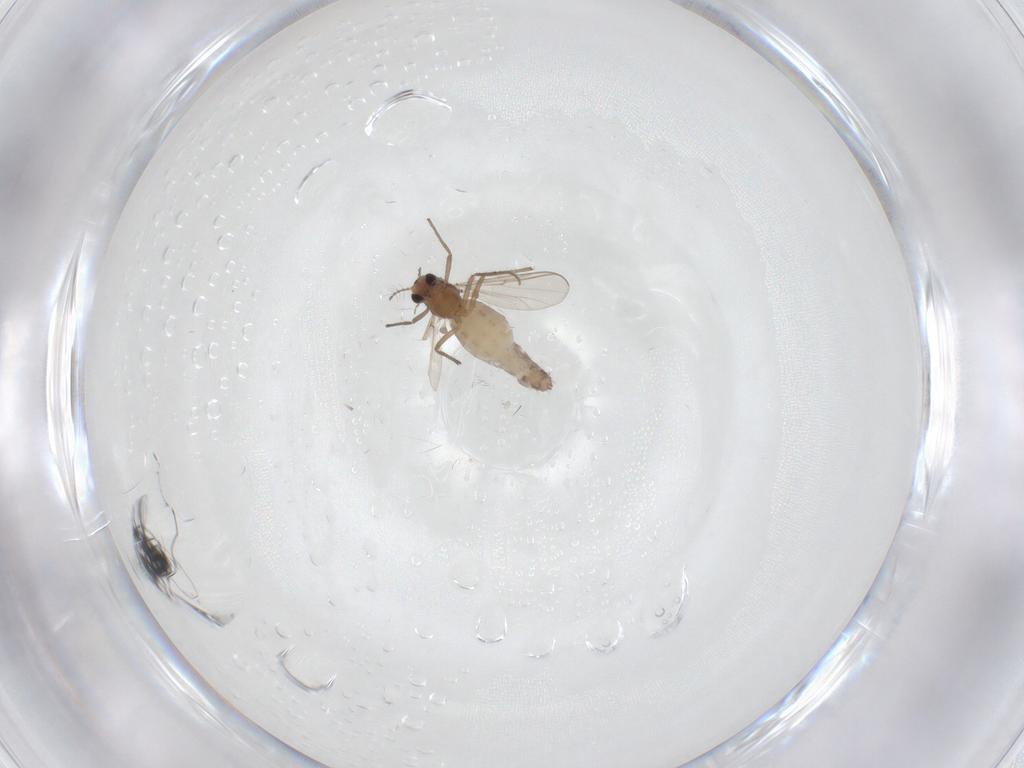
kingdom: Animalia
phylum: Arthropoda
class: Insecta
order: Diptera
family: Chironomidae
